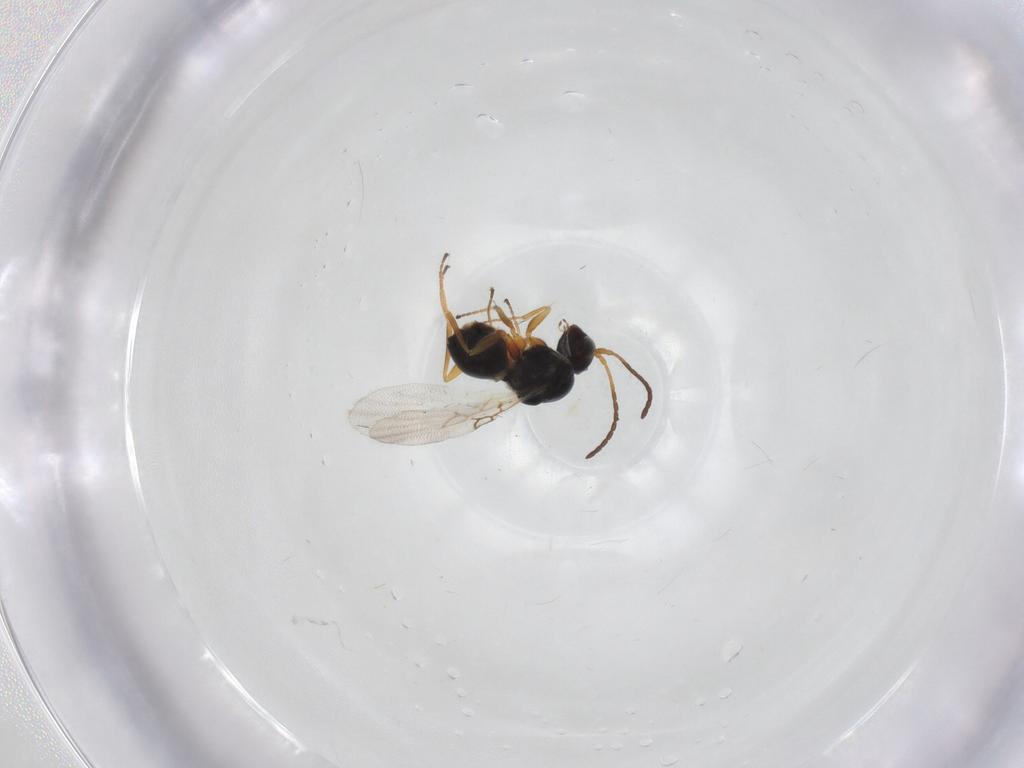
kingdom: Animalia
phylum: Arthropoda
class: Insecta
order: Hymenoptera
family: Figitidae
